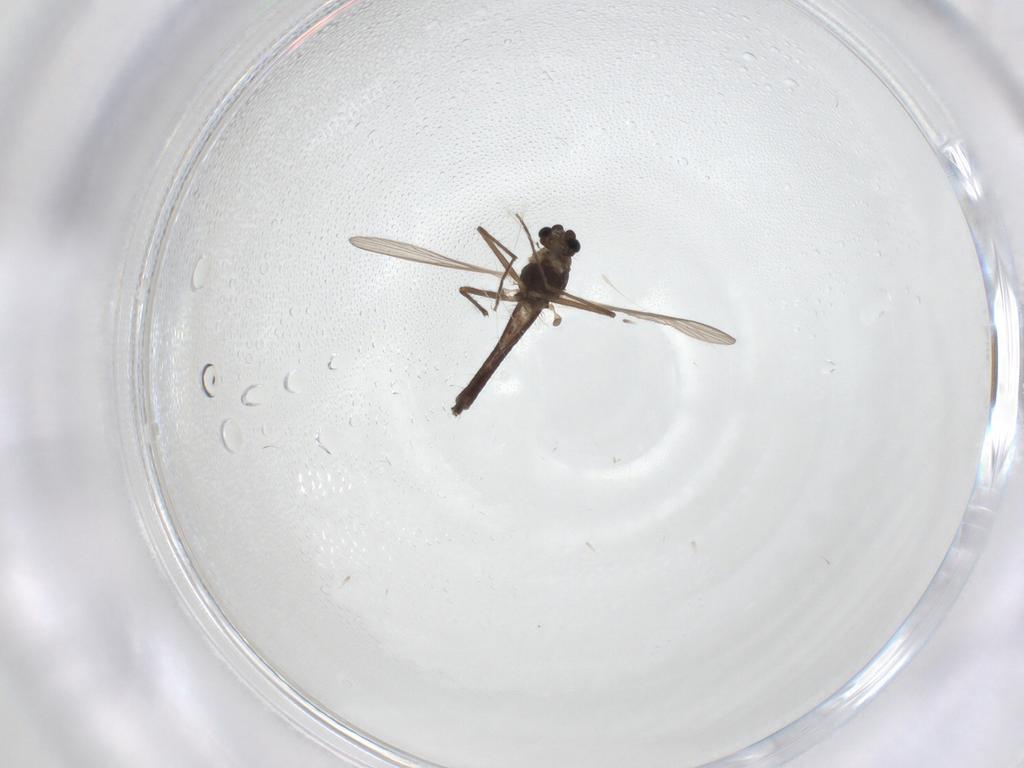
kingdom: Animalia
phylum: Arthropoda
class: Insecta
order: Diptera
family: Chironomidae
